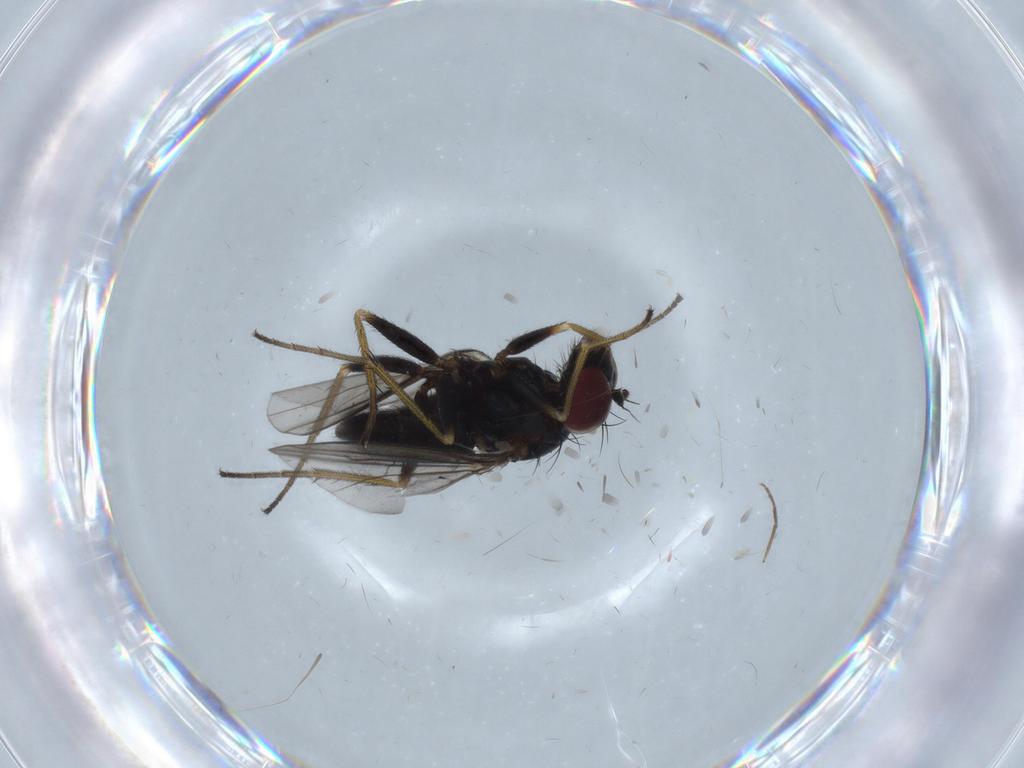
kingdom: Animalia
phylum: Arthropoda
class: Insecta
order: Diptera
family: Dolichopodidae
